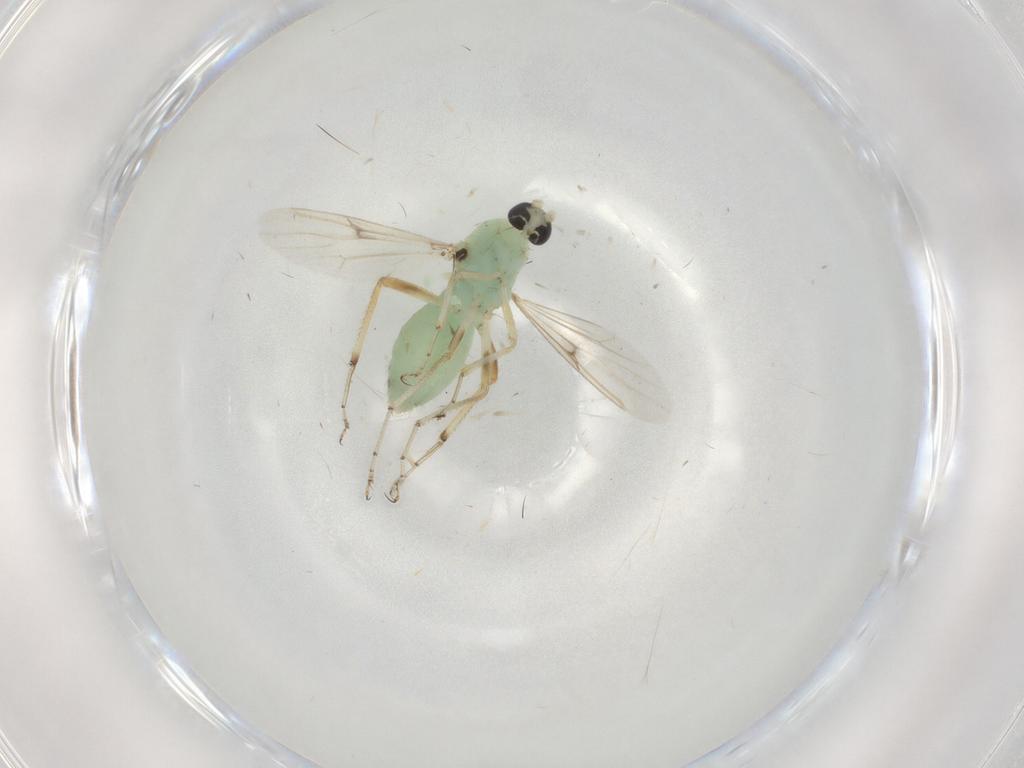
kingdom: Animalia
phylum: Arthropoda
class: Insecta
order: Diptera
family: Ceratopogonidae
